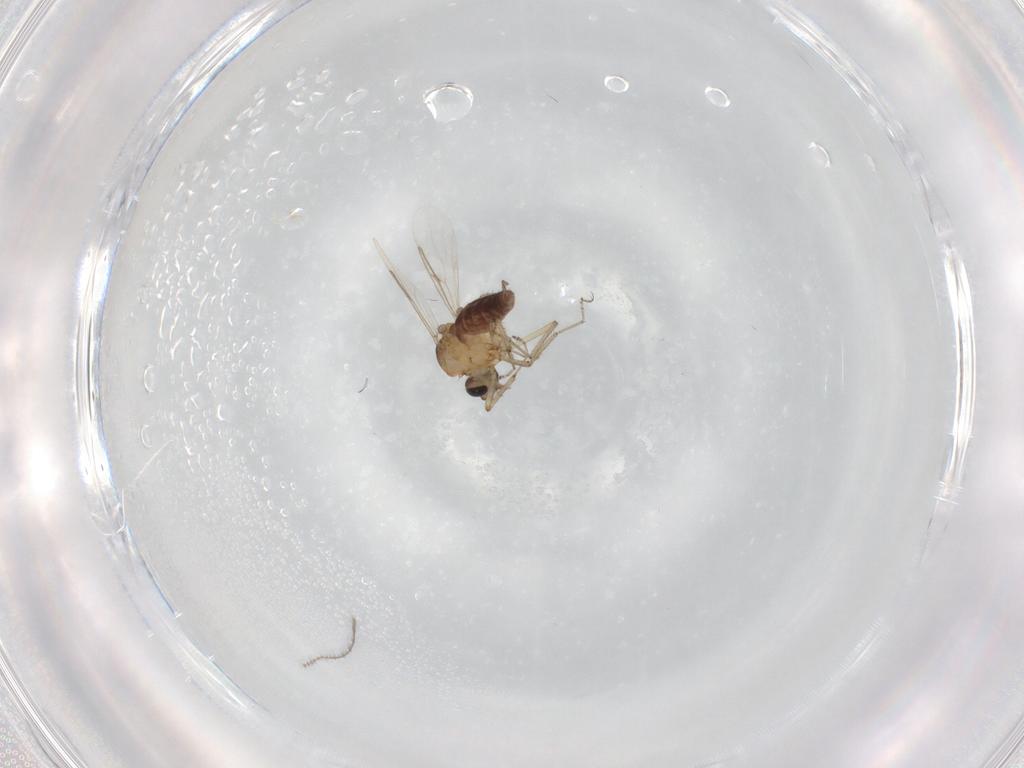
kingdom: Animalia
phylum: Arthropoda
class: Insecta
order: Diptera
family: Ceratopogonidae
